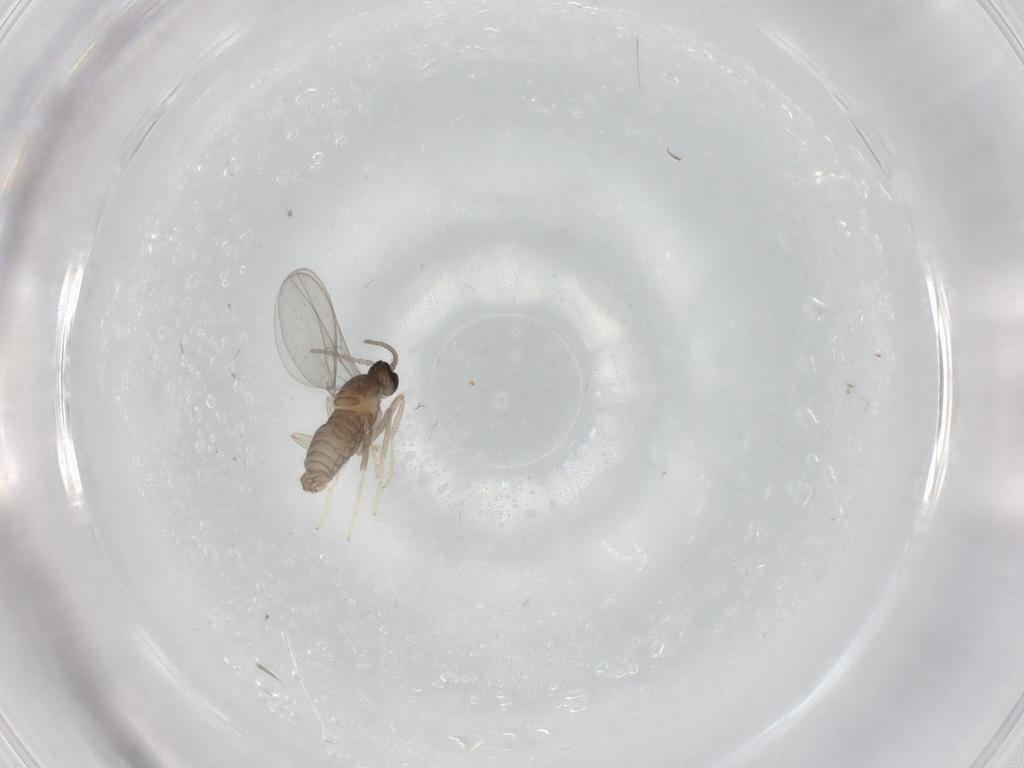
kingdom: Animalia
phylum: Arthropoda
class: Insecta
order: Diptera
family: Cecidomyiidae
